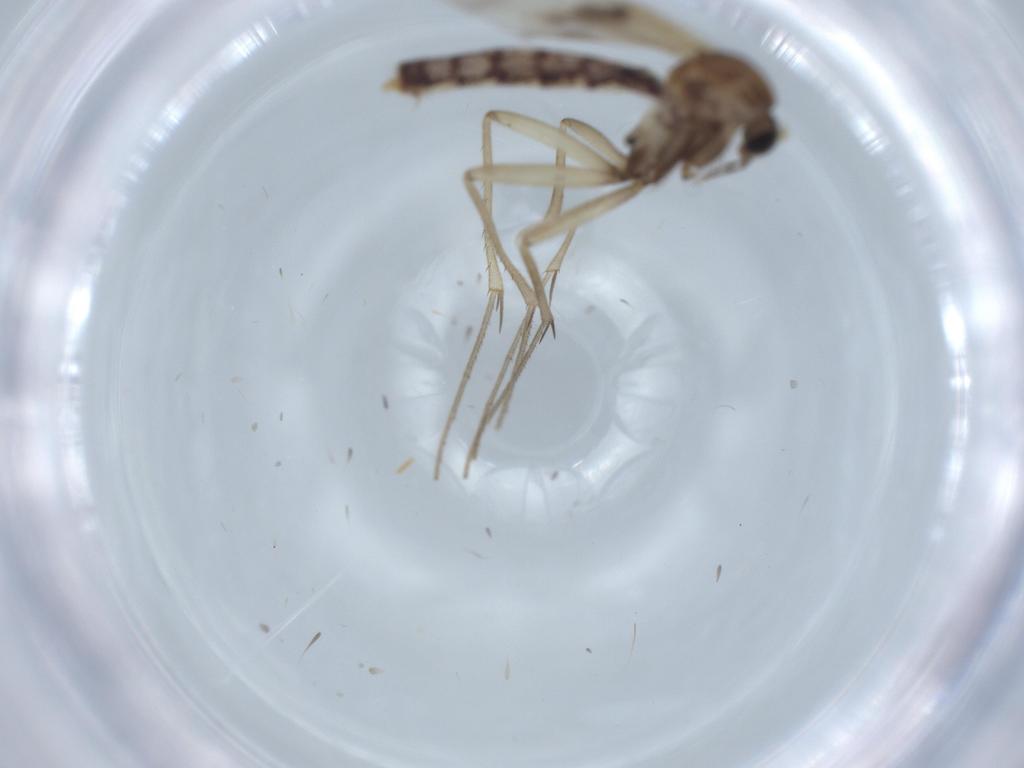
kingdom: Animalia
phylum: Arthropoda
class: Insecta
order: Diptera
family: Mycetophilidae
